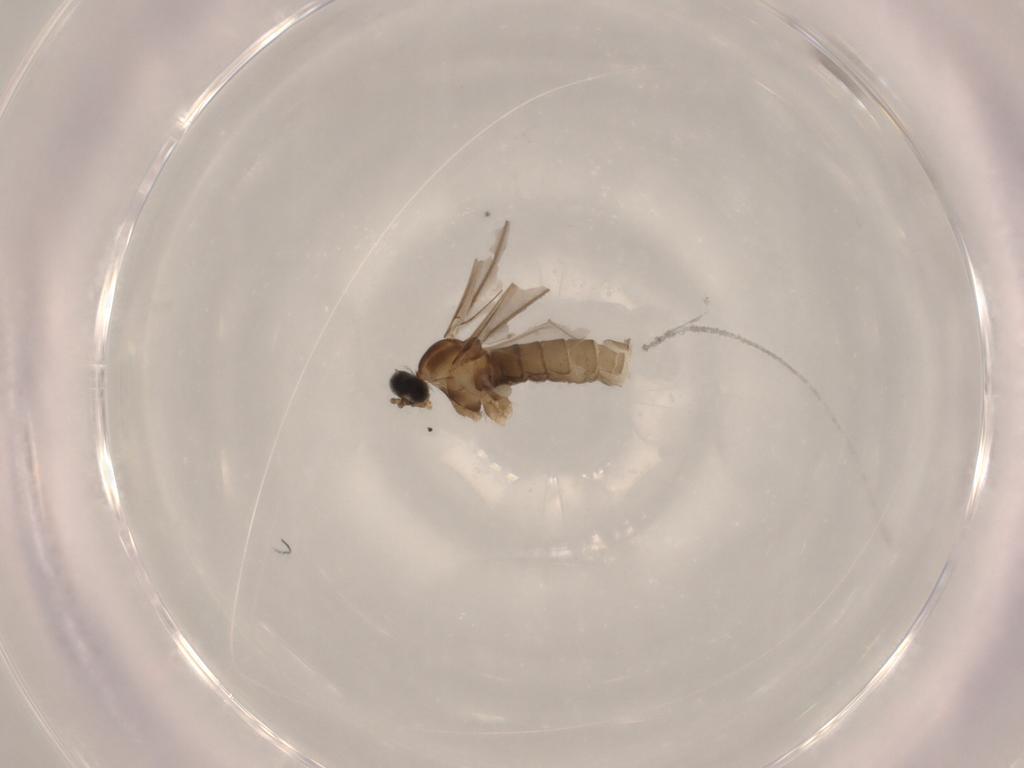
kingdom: Animalia
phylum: Arthropoda
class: Insecta
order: Diptera
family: Cecidomyiidae
